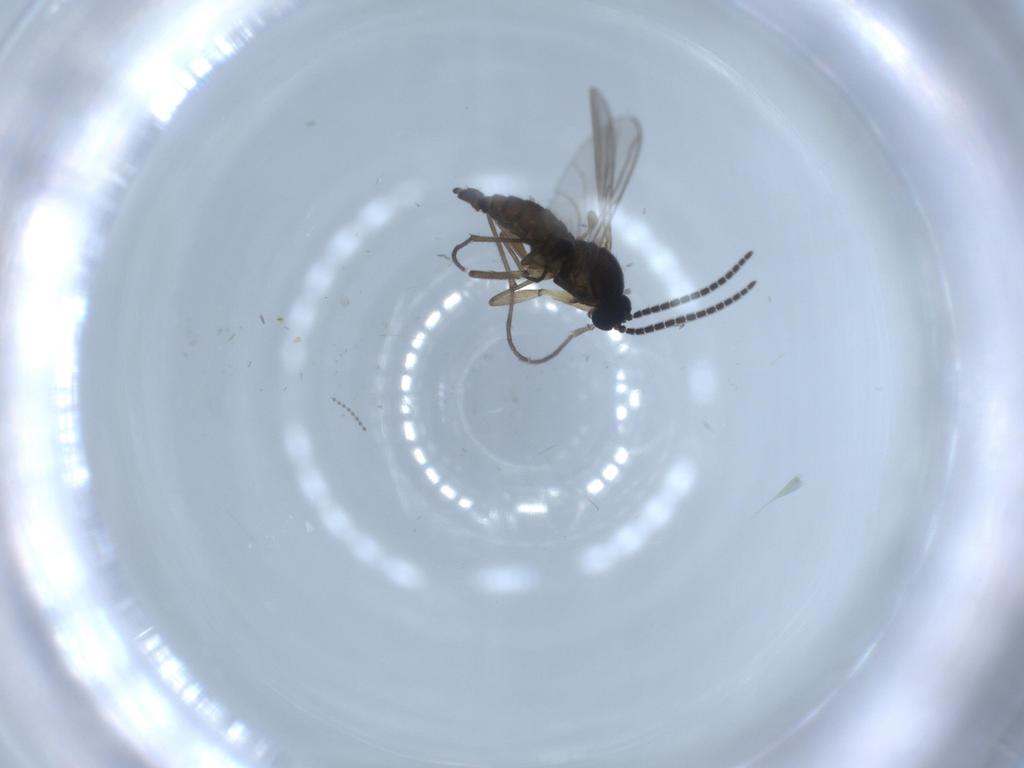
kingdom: Animalia
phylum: Arthropoda
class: Insecta
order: Diptera
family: Sciaridae
